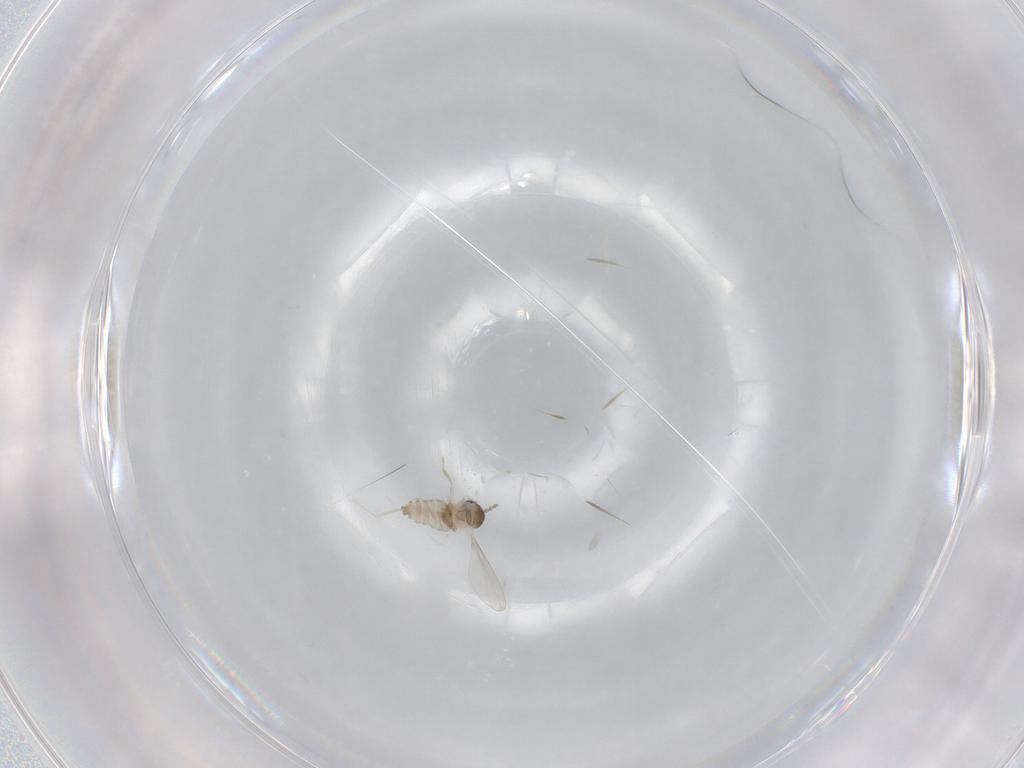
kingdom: Animalia
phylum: Arthropoda
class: Insecta
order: Diptera
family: Cecidomyiidae
